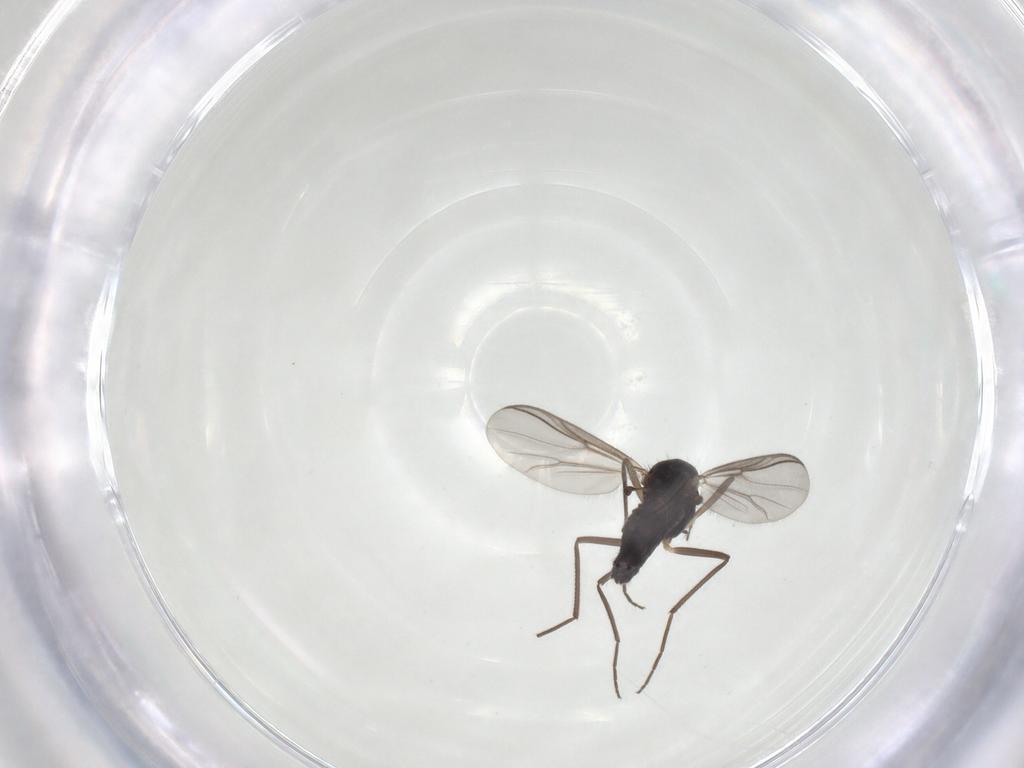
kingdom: Animalia
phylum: Arthropoda
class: Insecta
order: Diptera
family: Chironomidae
